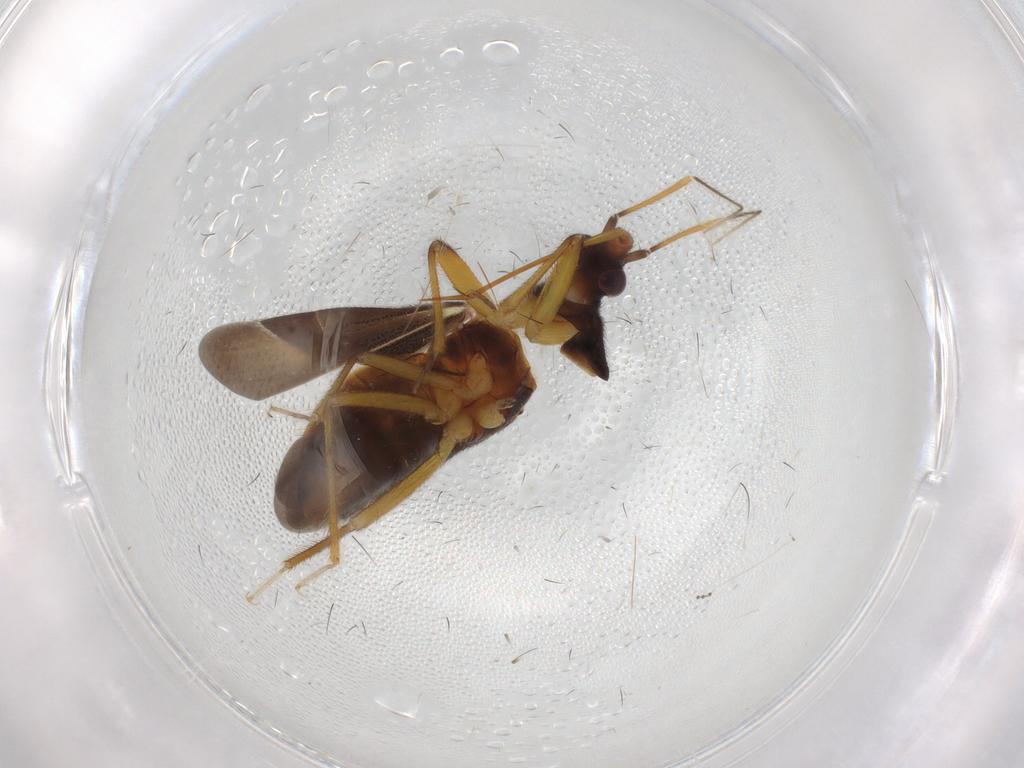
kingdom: Animalia
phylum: Arthropoda
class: Insecta
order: Hemiptera
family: Anthocoridae
